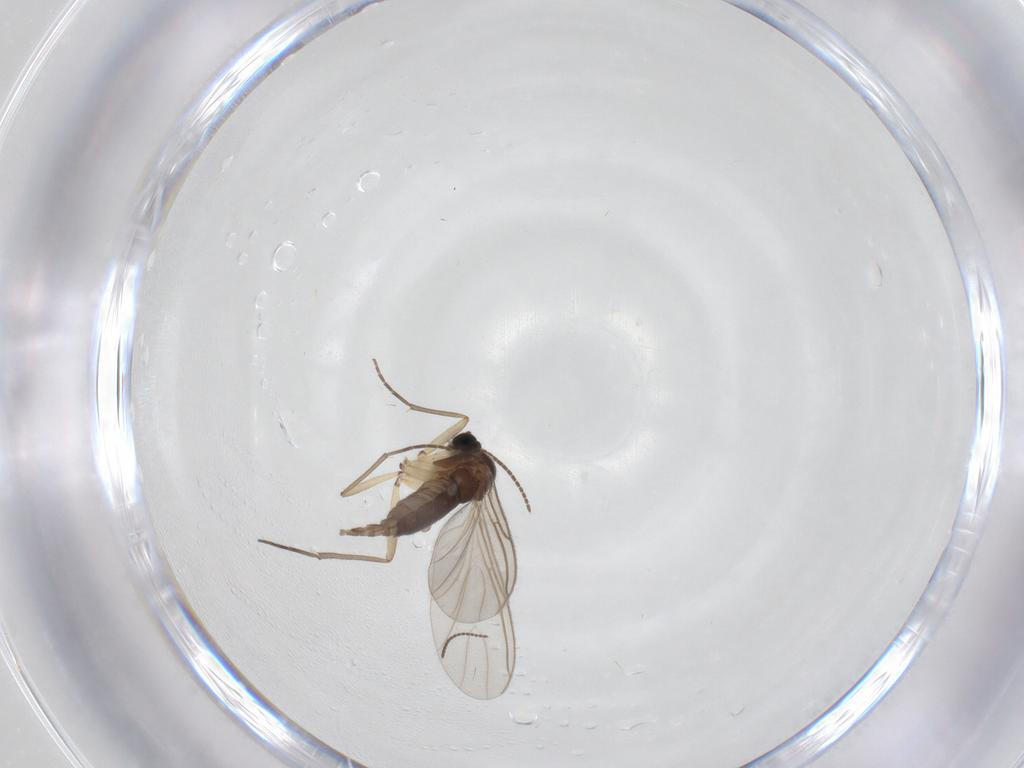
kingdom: Animalia
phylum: Arthropoda
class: Insecta
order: Diptera
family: Sciaridae
